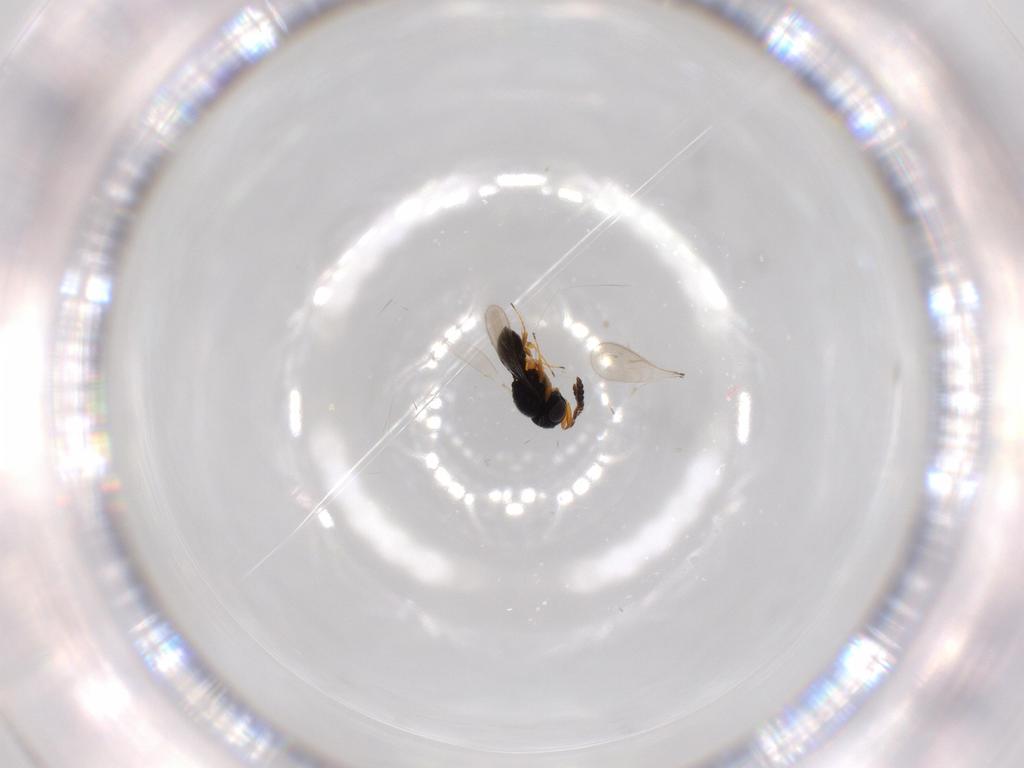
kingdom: Animalia
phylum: Arthropoda
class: Insecta
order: Hymenoptera
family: Scelionidae
